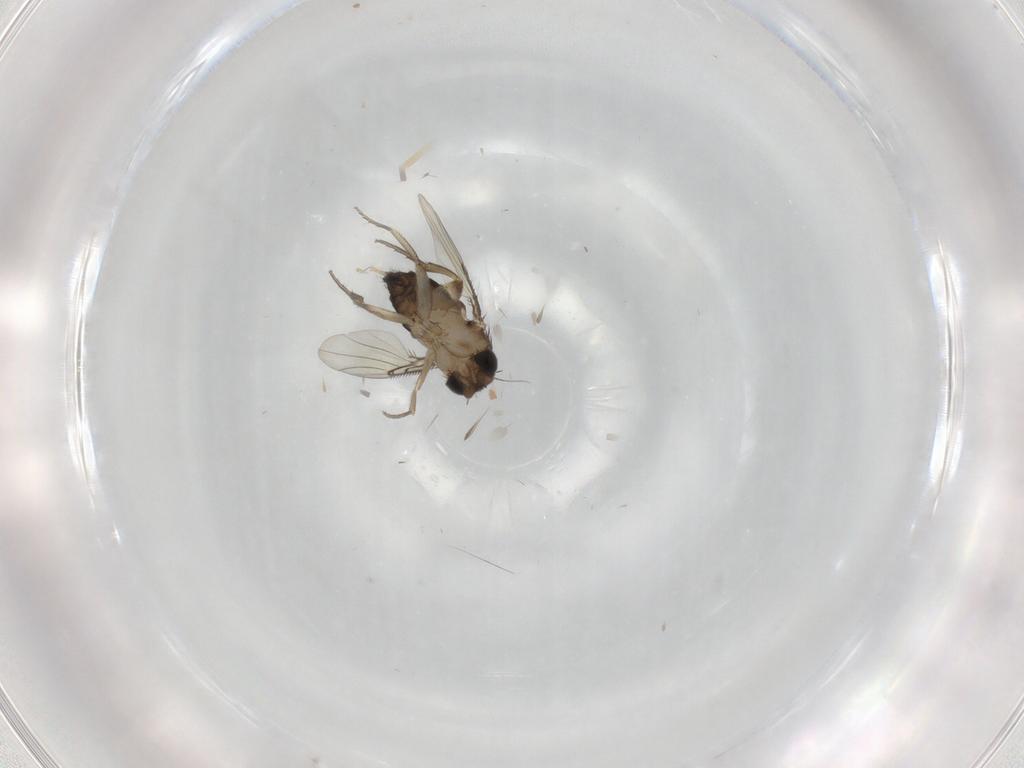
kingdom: Animalia
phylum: Arthropoda
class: Insecta
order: Diptera
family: Phoridae
